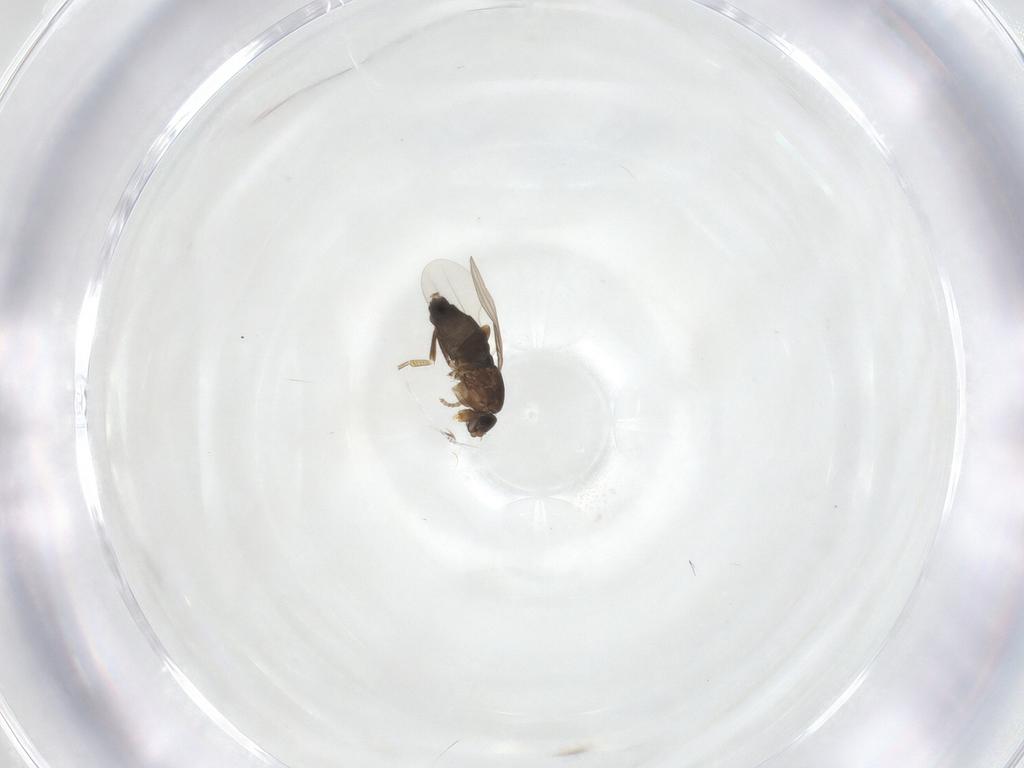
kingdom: Animalia
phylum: Arthropoda
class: Insecta
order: Diptera
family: Phoridae
